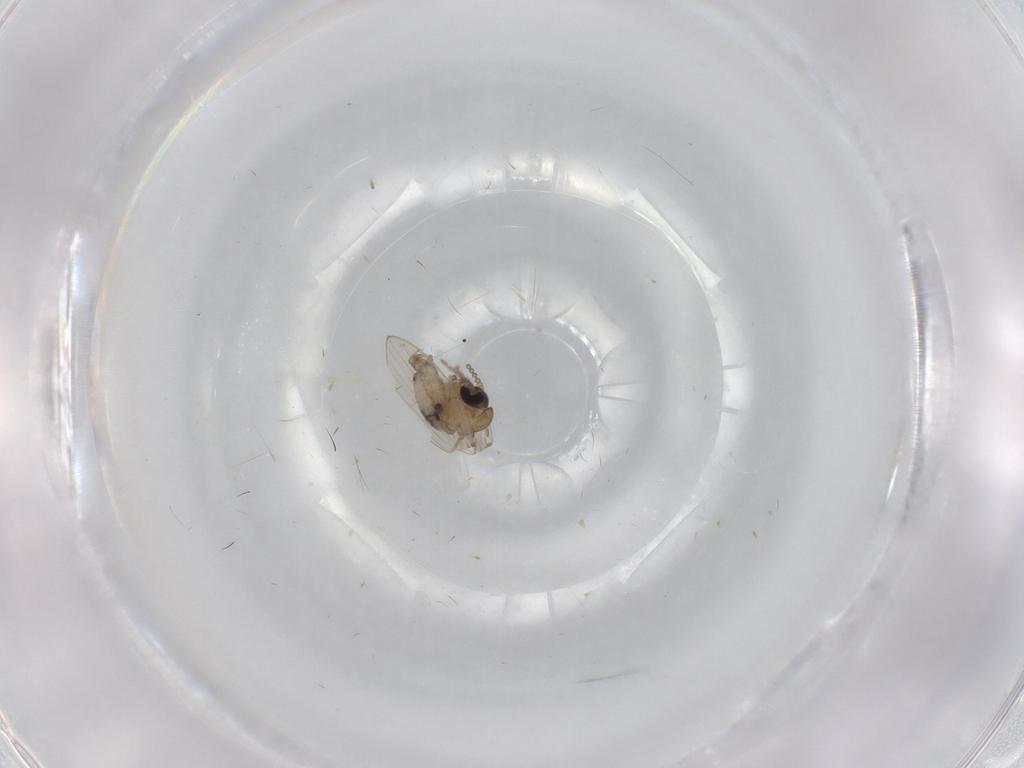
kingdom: Animalia
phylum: Arthropoda
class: Insecta
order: Diptera
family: Psychodidae
